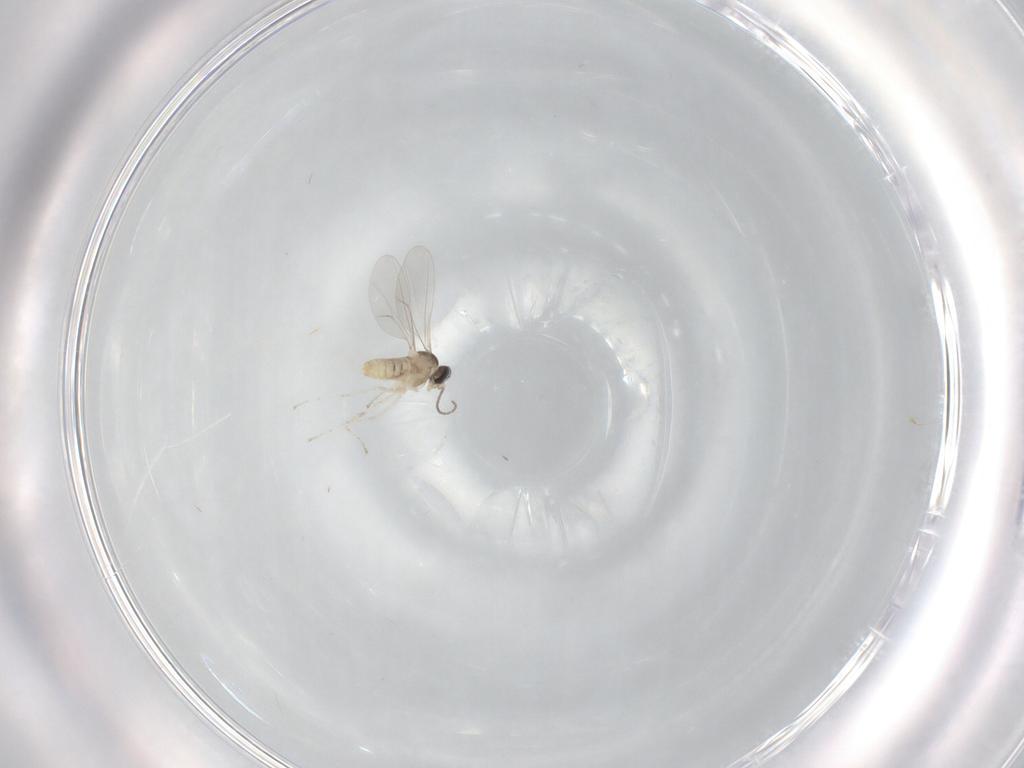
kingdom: Animalia
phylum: Arthropoda
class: Insecta
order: Diptera
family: Cecidomyiidae
